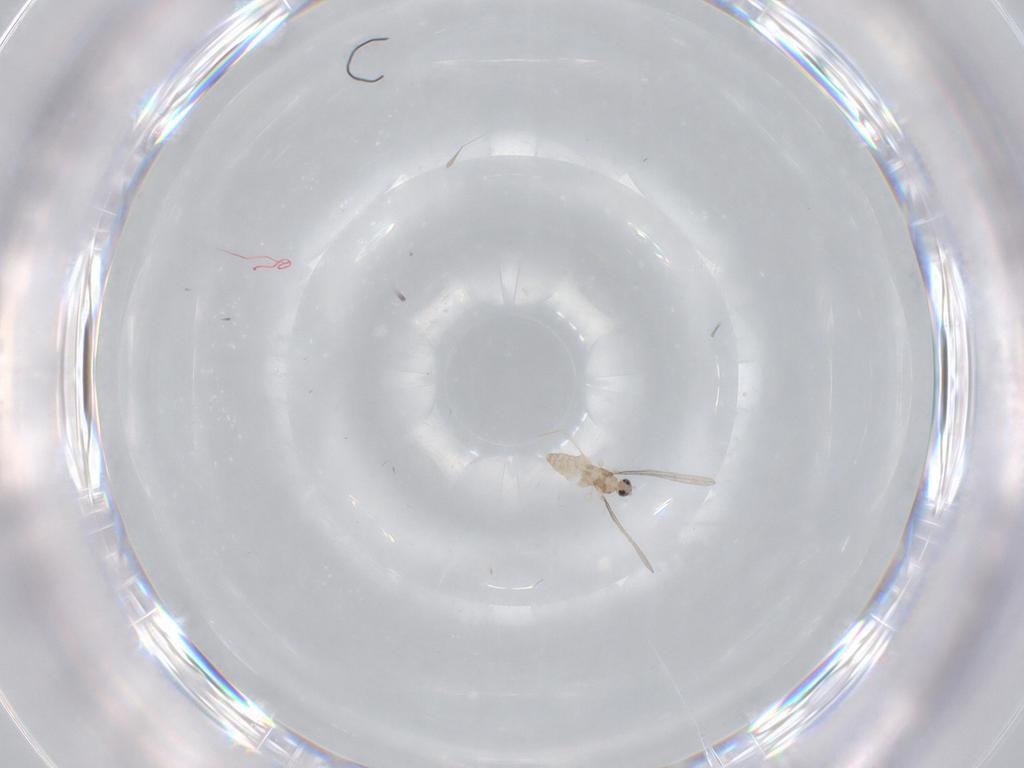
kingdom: Animalia
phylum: Arthropoda
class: Insecta
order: Diptera
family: Cecidomyiidae
